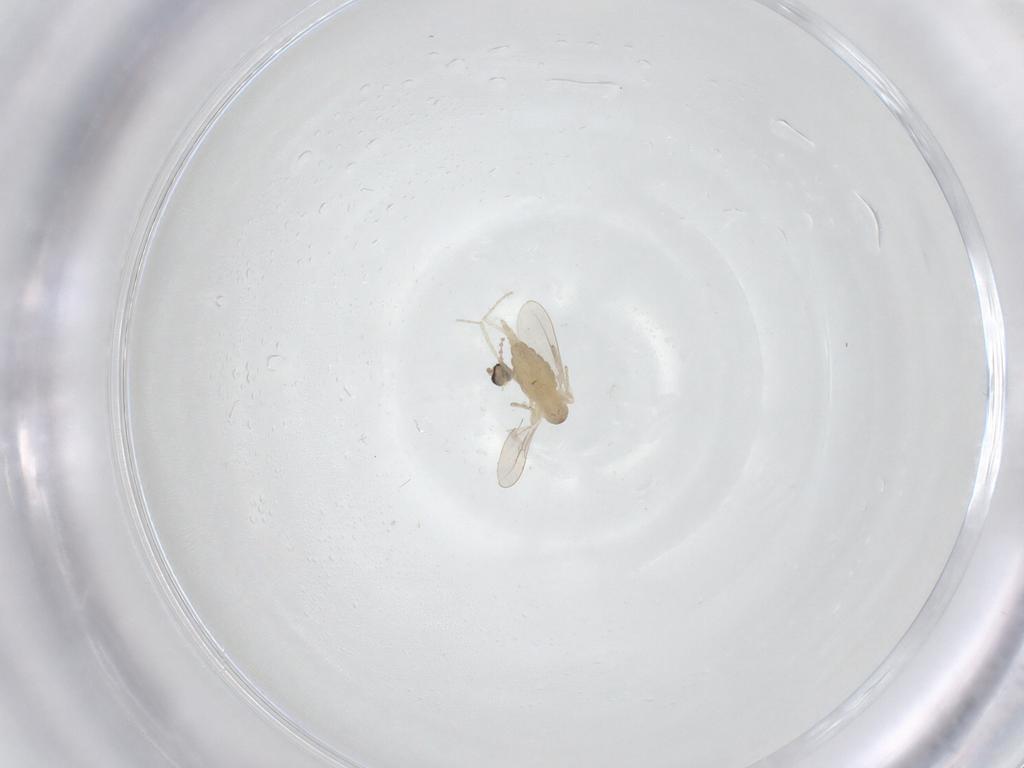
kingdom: Animalia
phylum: Arthropoda
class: Insecta
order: Diptera
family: Cecidomyiidae
